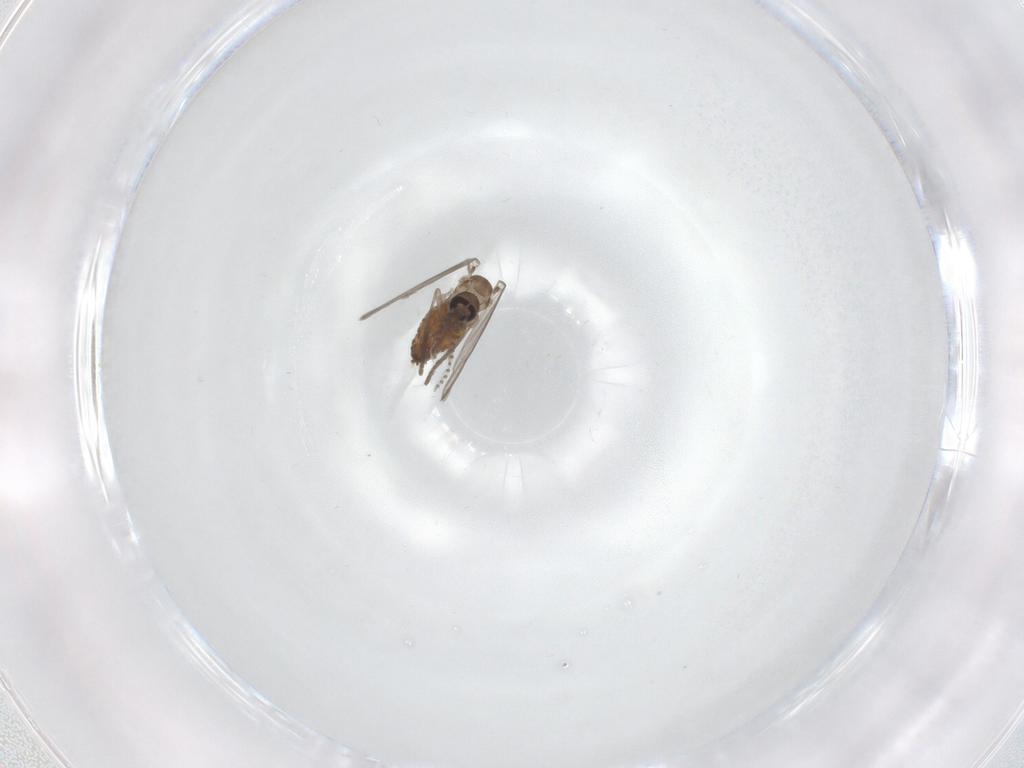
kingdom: Animalia
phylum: Arthropoda
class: Insecta
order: Diptera
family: Psychodidae
